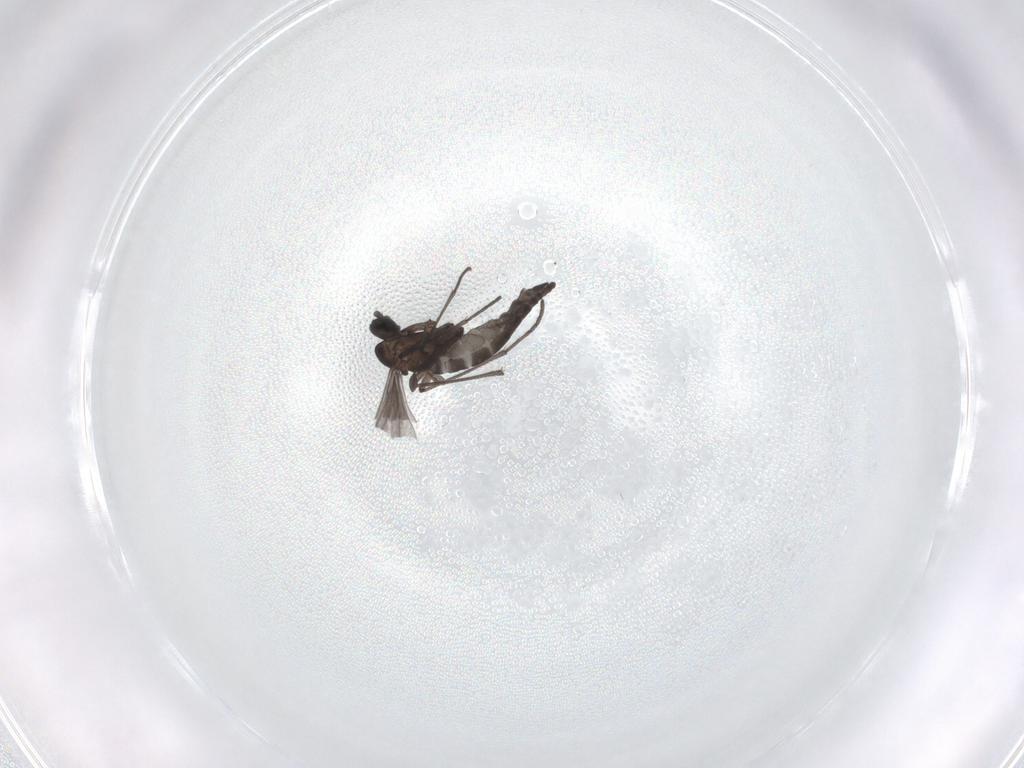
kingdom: Animalia
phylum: Arthropoda
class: Insecta
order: Diptera
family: Sciaridae
